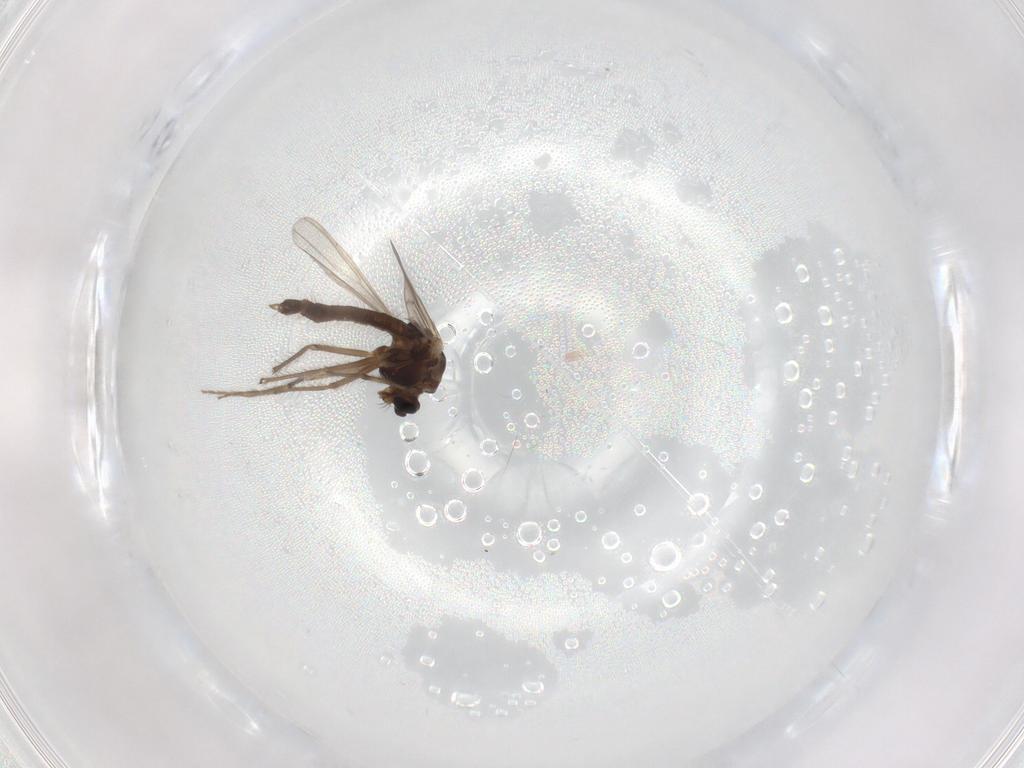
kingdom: Animalia
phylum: Arthropoda
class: Insecta
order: Diptera
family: Chironomidae
